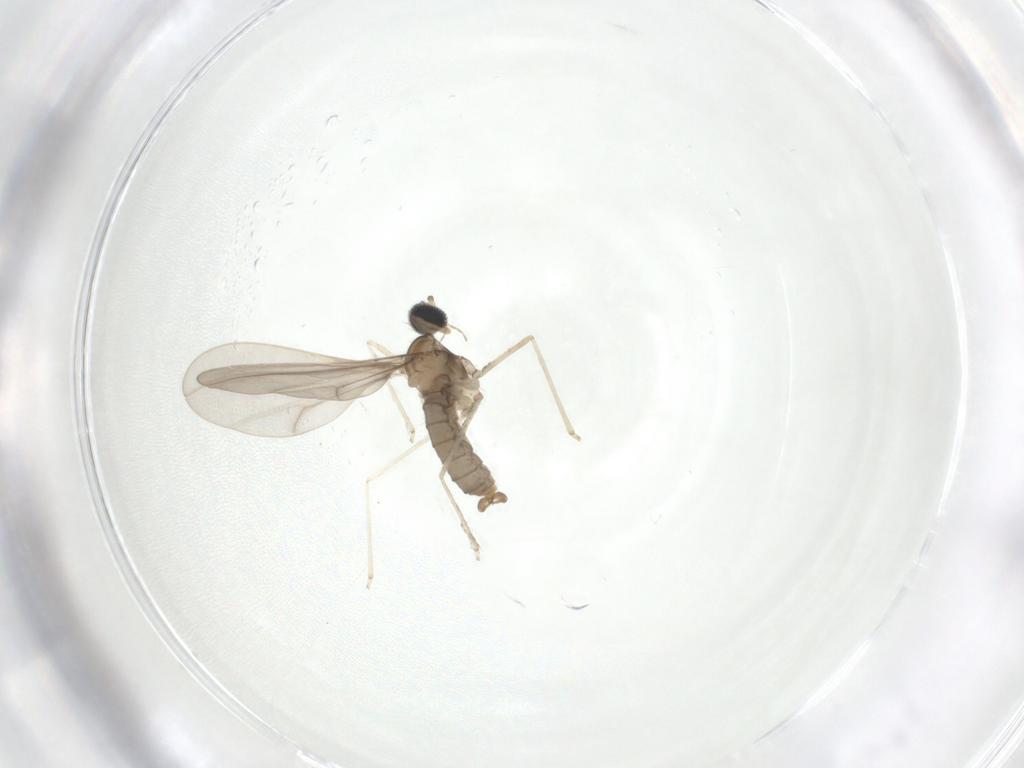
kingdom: Animalia
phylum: Arthropoda
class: Insecta
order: Diptera
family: Cecidomyiidae
